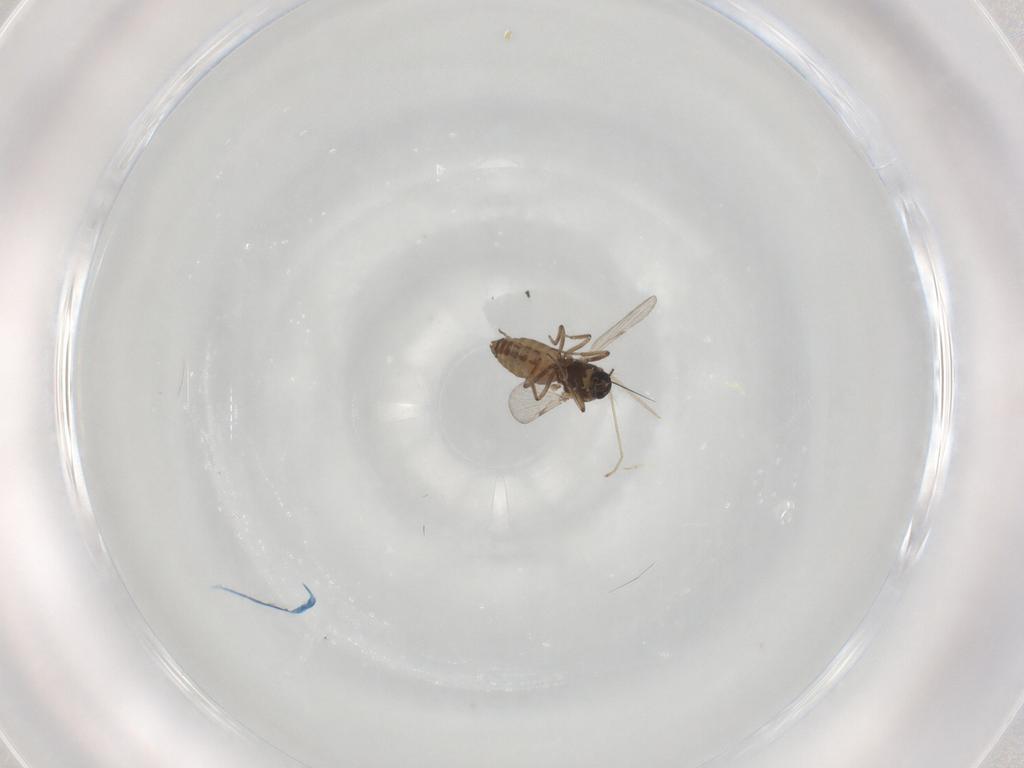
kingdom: Animalia
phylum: Arthropoda
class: Insecta
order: Diptera
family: Ceratopogonidae
